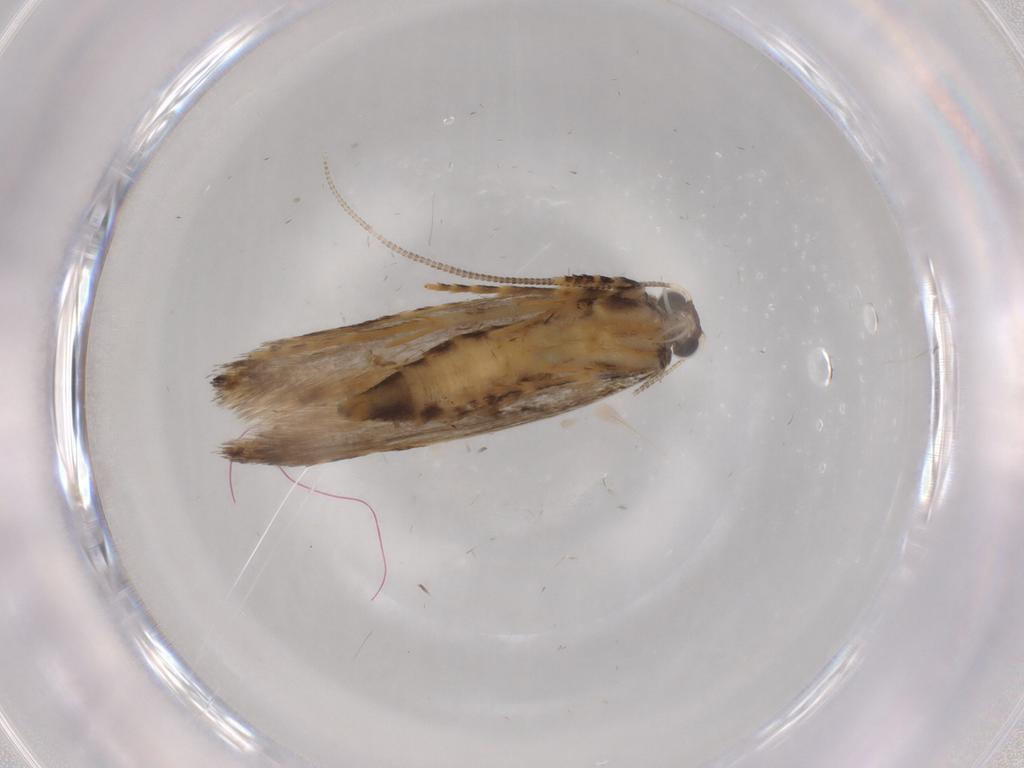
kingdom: Animalia
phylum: Arthropoda
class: Insecta
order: Lepidoptera
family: Tineidae
